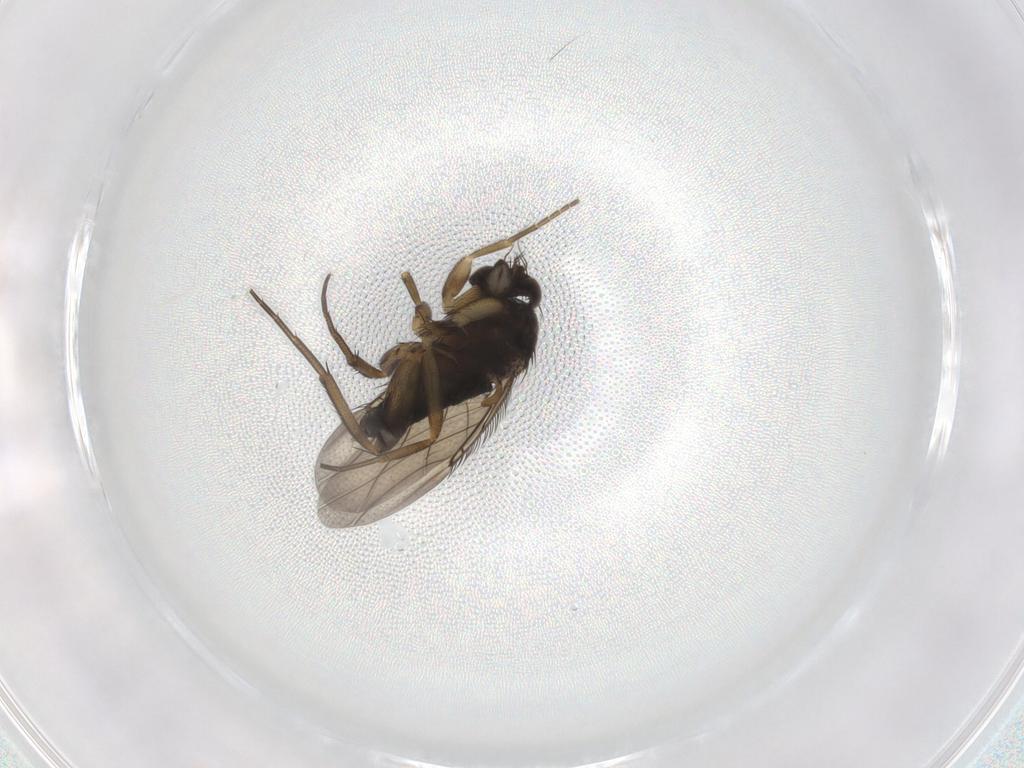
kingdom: Animalia
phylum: Arthropoda
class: Insecta
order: Diptera
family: Phoridae
